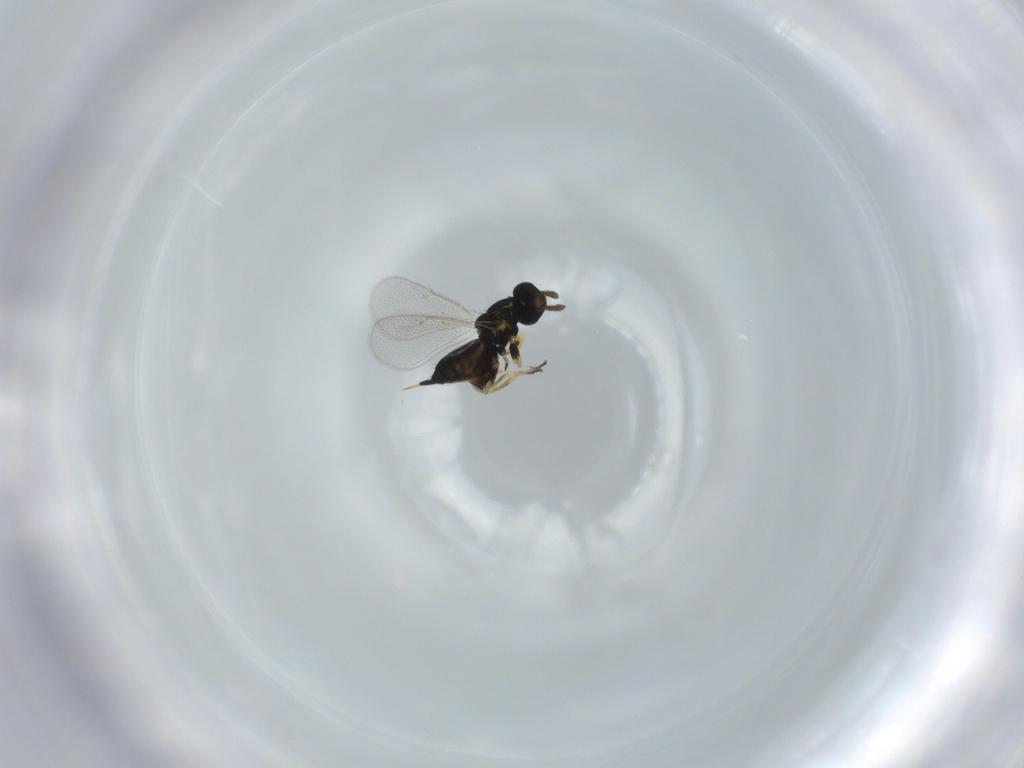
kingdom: Animalia
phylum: Arthropoda
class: Insecta
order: Hymenoptera
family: Eulophidae
